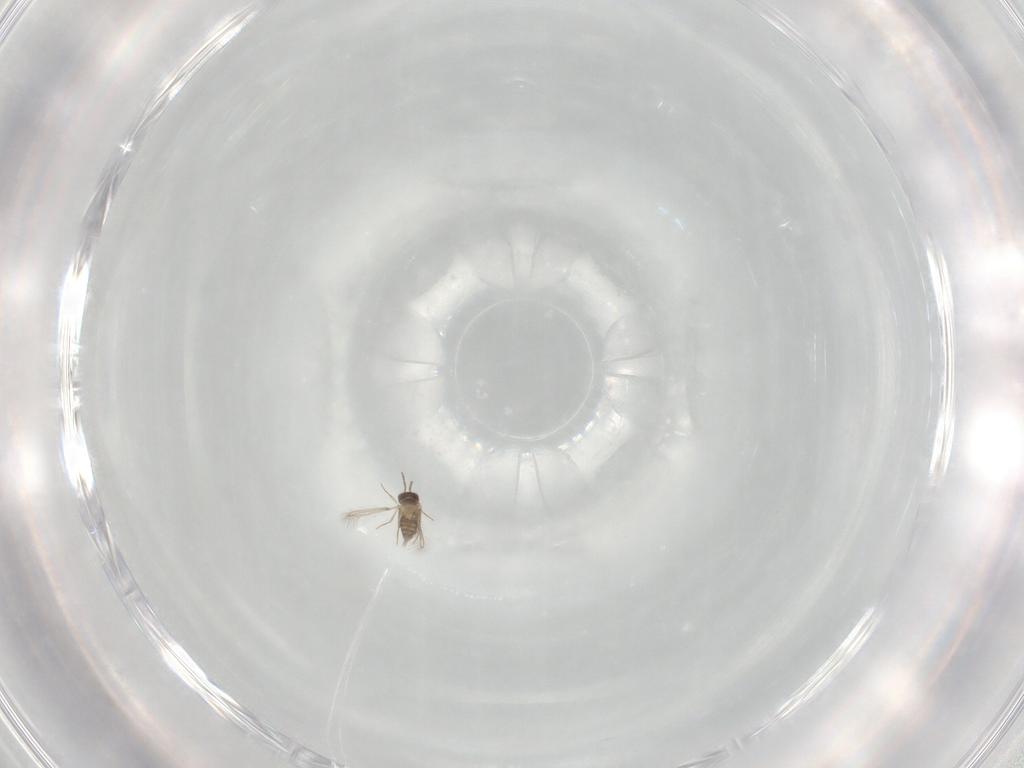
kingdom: Animalia
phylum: Arthropoda
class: Insecta
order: Hymenoptera
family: Mymaridae
